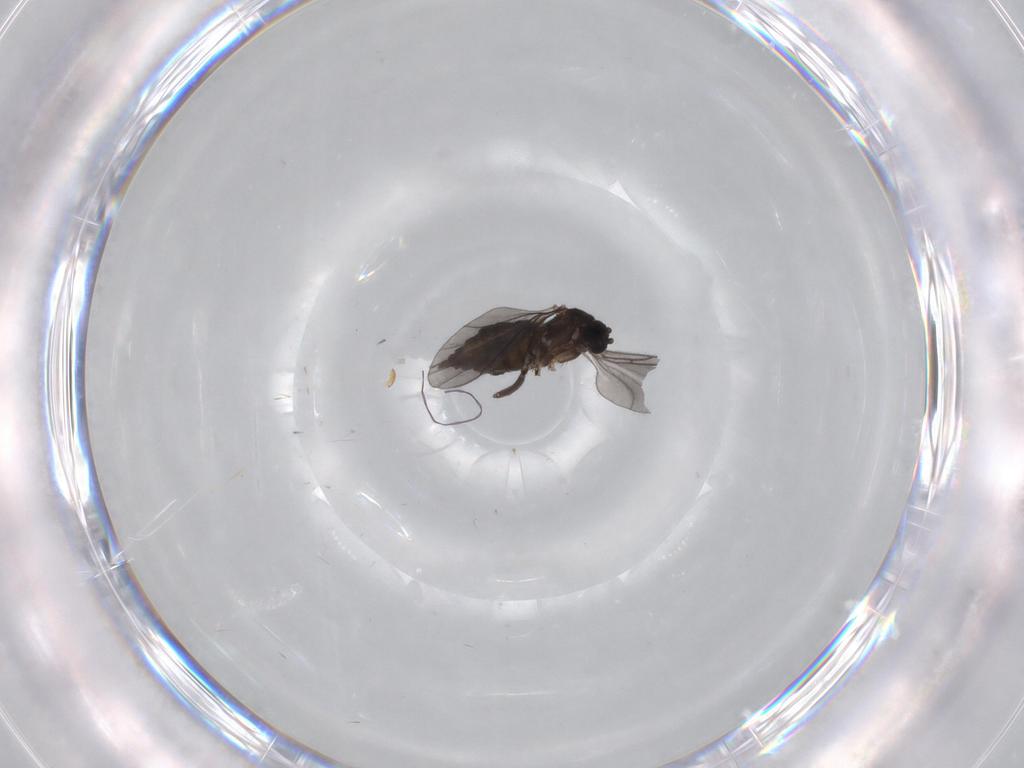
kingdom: Animalia
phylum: Arthropoda
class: Insecta
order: Diptera
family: Sciaridae
